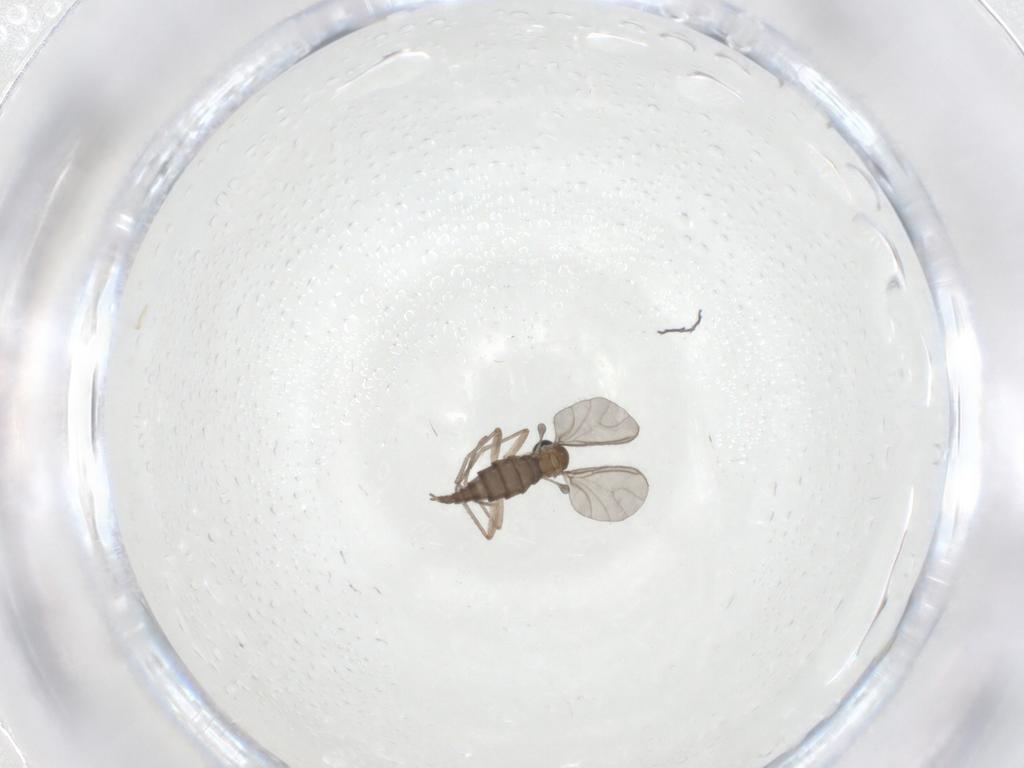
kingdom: Animalia
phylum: Arthropoda
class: Insecta
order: Diptera
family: Sciaridae
